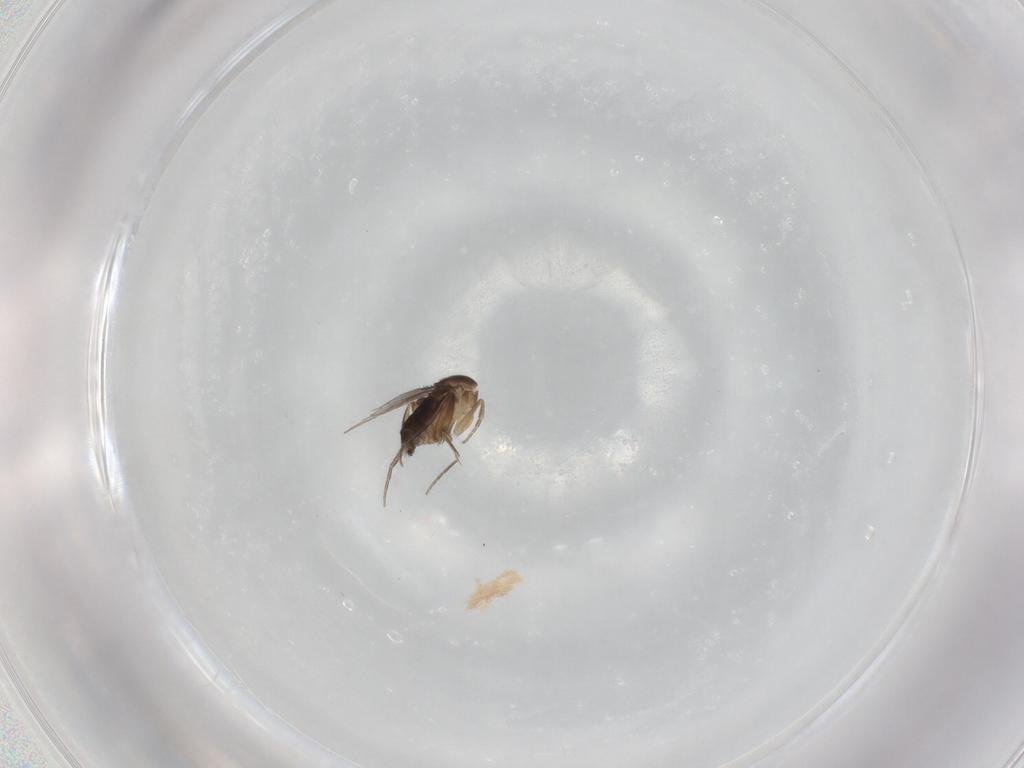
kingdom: Animalia
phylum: Arthropoda
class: Insecta
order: Diptera
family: Phoridae
